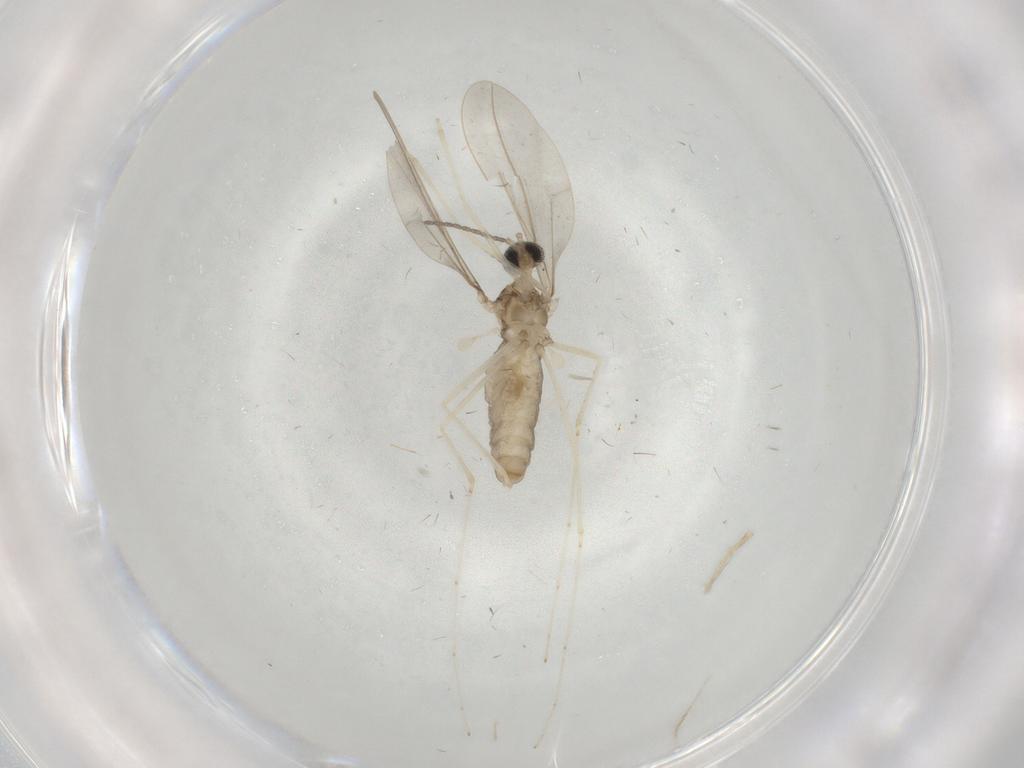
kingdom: Animalia
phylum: Arthropoda
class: Insecta
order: Diptera
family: Cecidomyiidae
